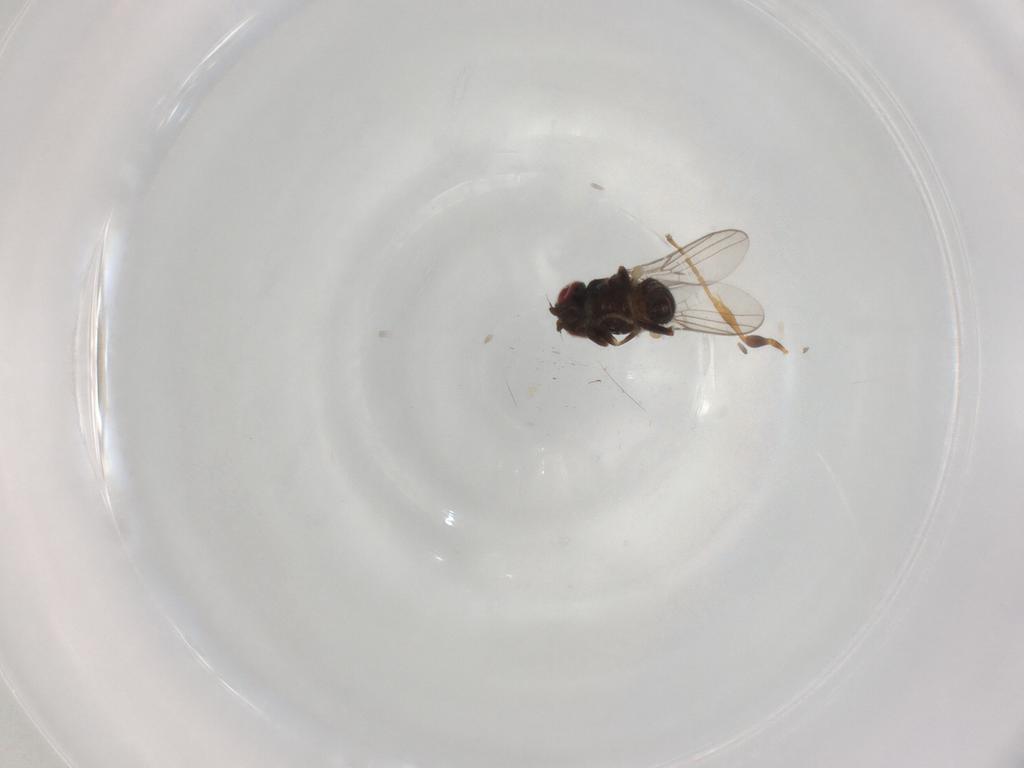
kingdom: Animalia
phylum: Arthropoda
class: Insecta
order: Diptera
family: Chloropidae
